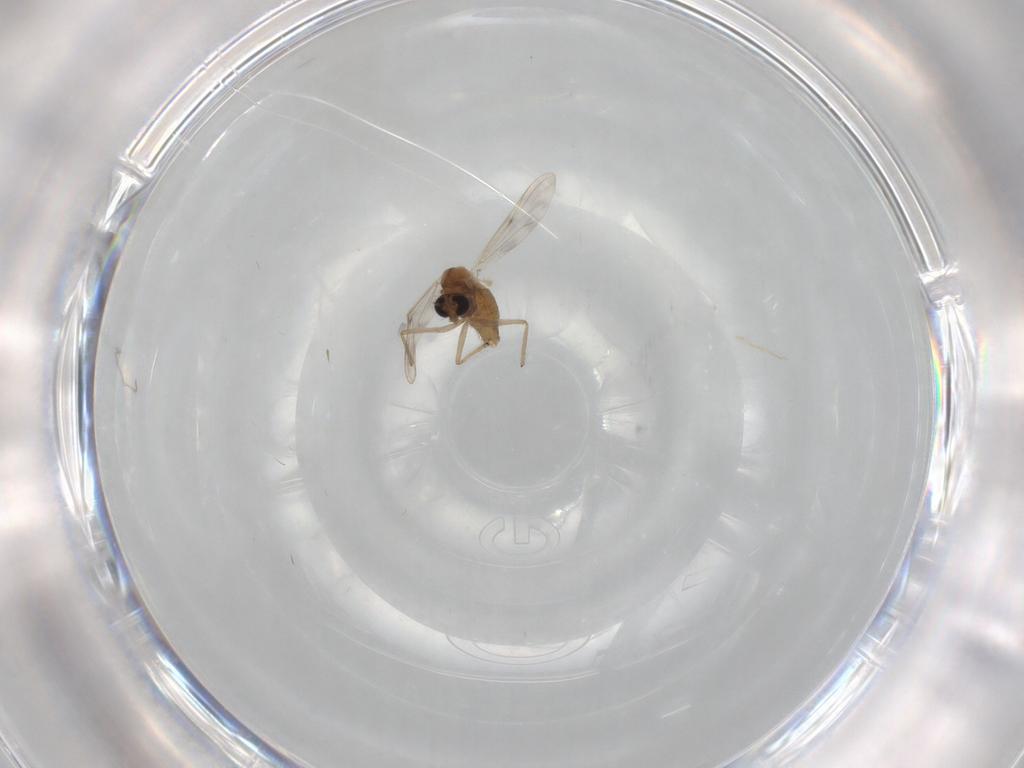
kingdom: Animalia
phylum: Arthropoda
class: Insecta
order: Diptera
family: Chironomidae
